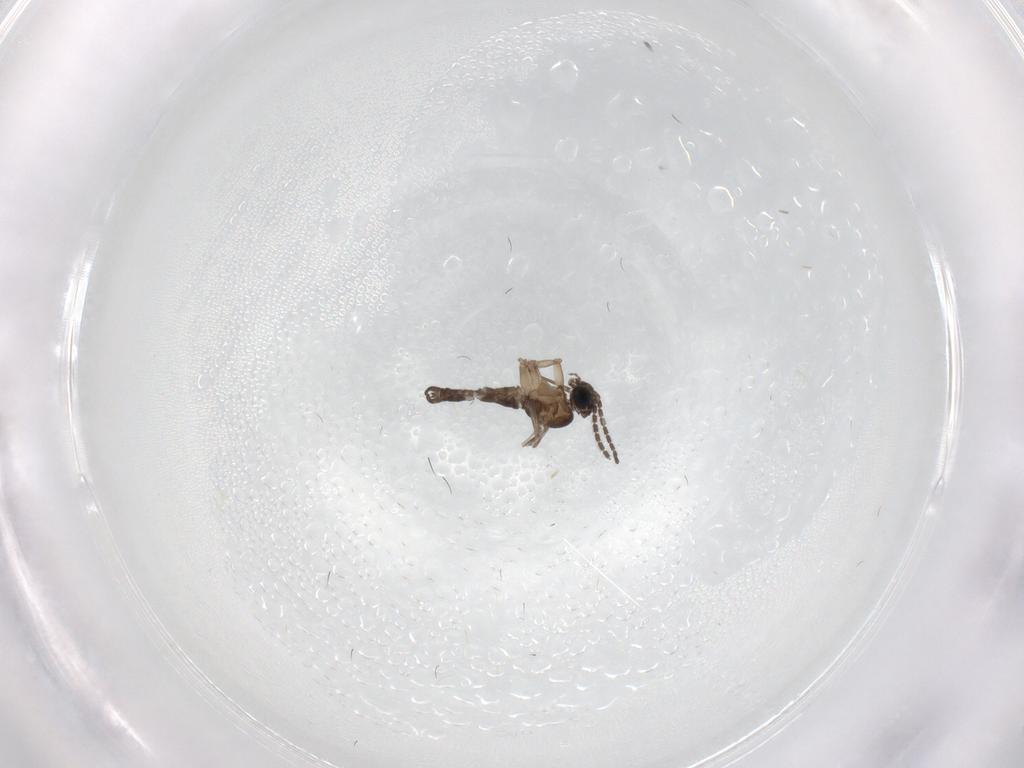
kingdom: Animalia
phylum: Arthropoda
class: Insecta
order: Diptera
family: Sciaridae
